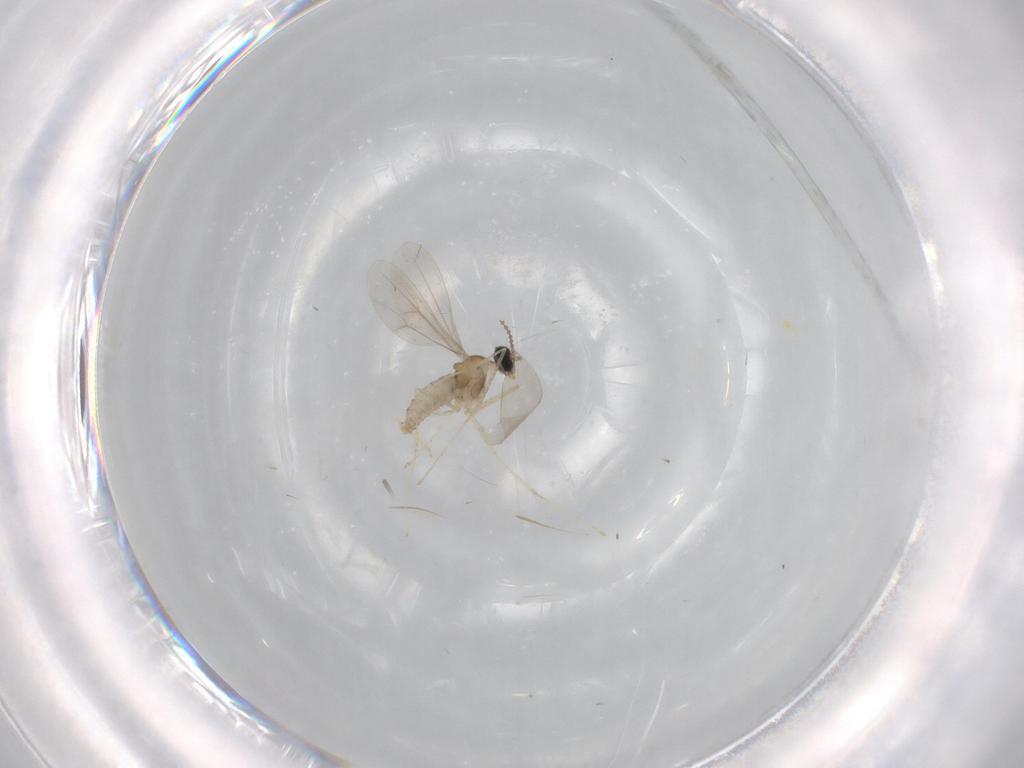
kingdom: Animalia
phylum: Arthropoda
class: Insecta
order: Diptera
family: Cecidomyiidae
